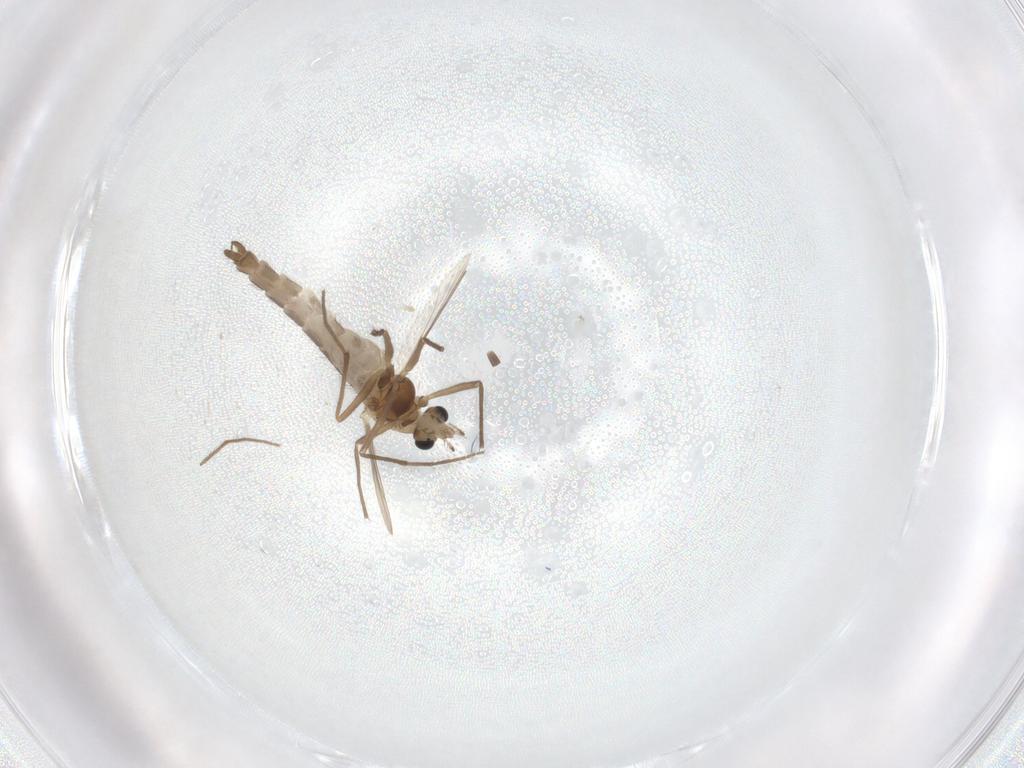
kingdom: Animalia
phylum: Arthropoda
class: Insecta
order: Diptera
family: Chironomidae
